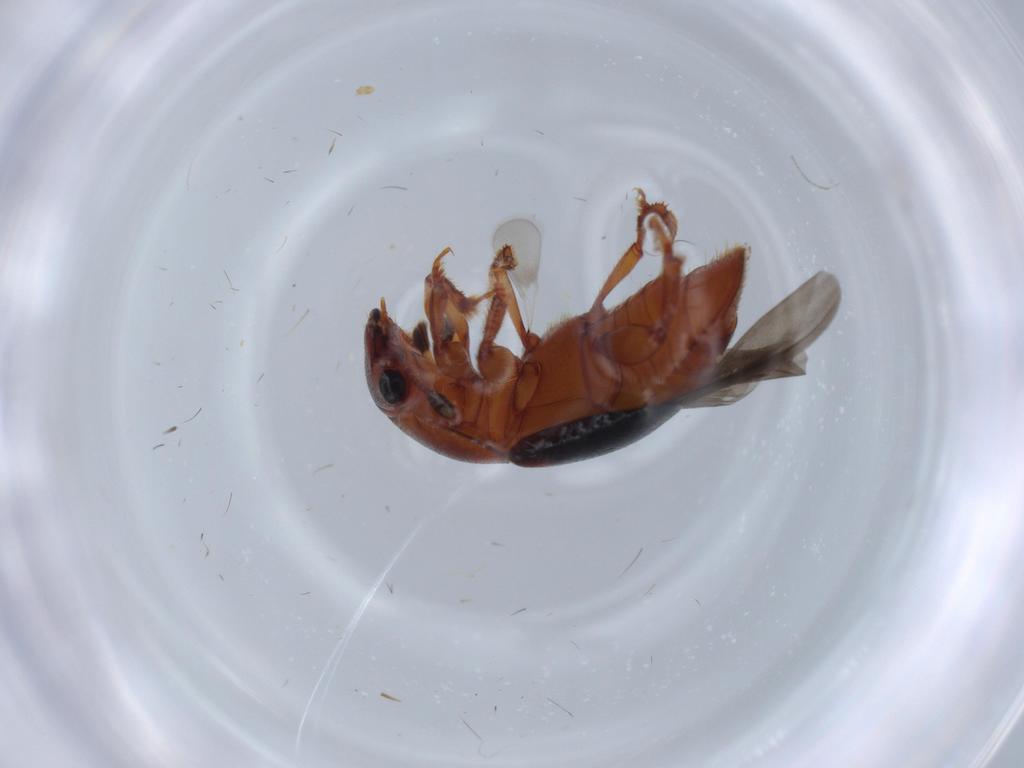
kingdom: Animalia
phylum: Arthropoda
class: Insecta
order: Coleoptera
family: Nitidulidae
